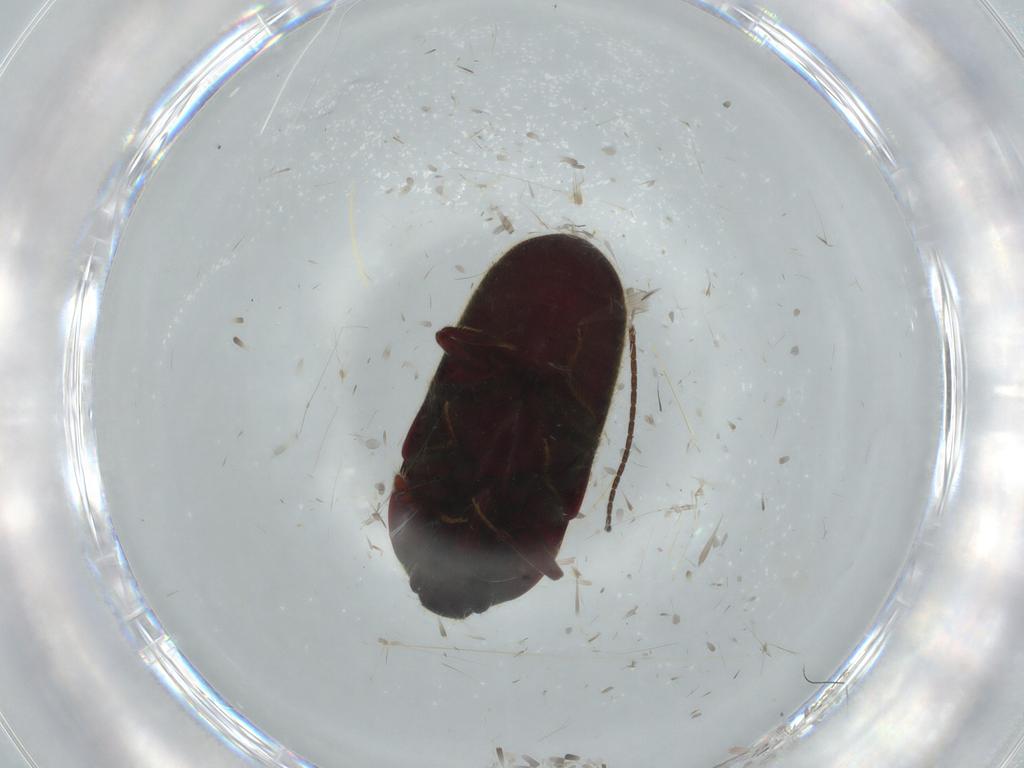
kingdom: Animalia
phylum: Arthropoda
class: Insecta
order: Coleoptera
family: Throscidae
